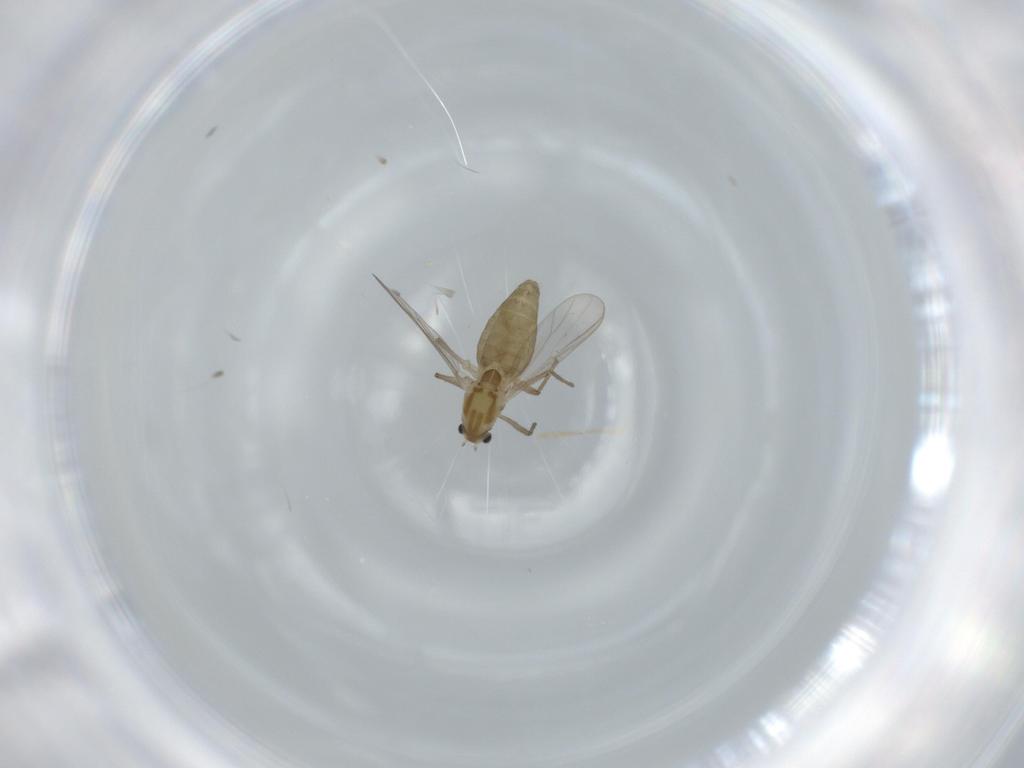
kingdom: Animalia
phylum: Arthropoda
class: Insecta
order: Diptera
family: Chironomidae
